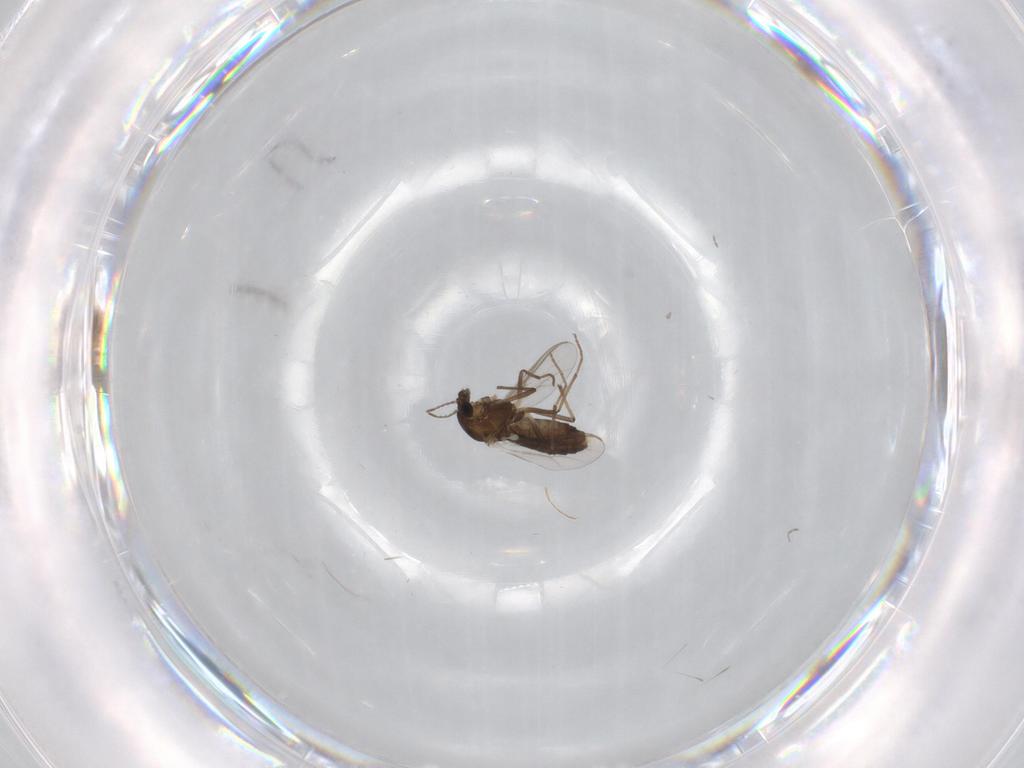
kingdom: Animalia
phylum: Arthropoda
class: Insecta
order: Diptera
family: Chironomidae
